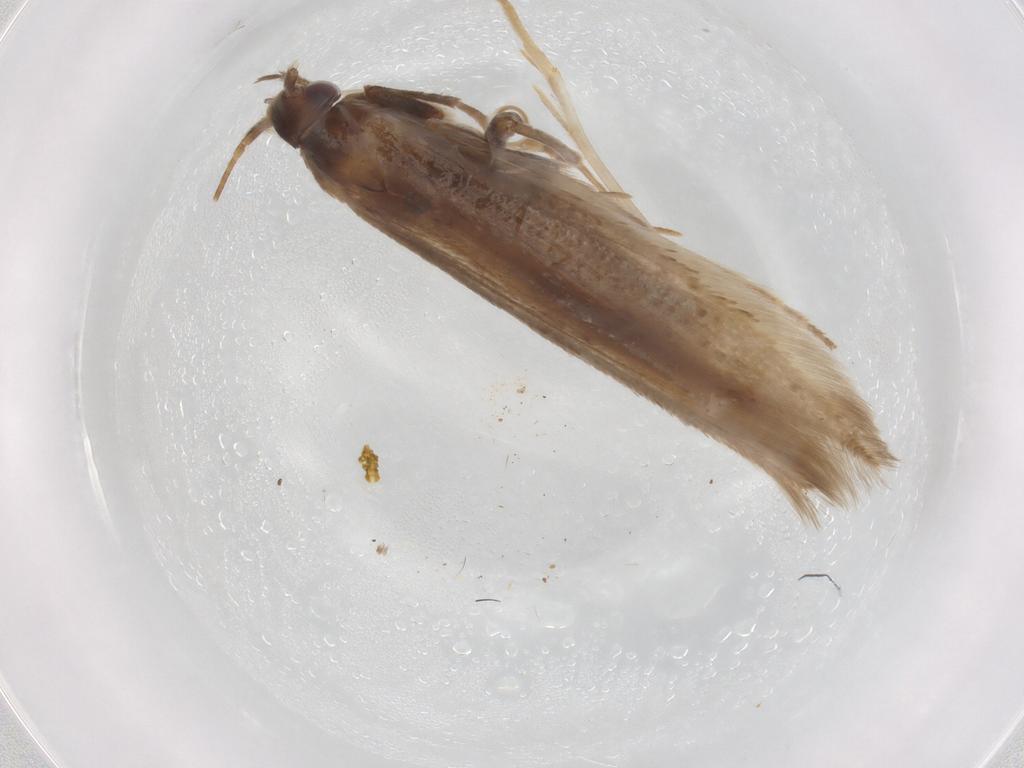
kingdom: Animalia
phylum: Arthropoda
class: Insecta
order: Lepidoptera
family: Coleophoridae
